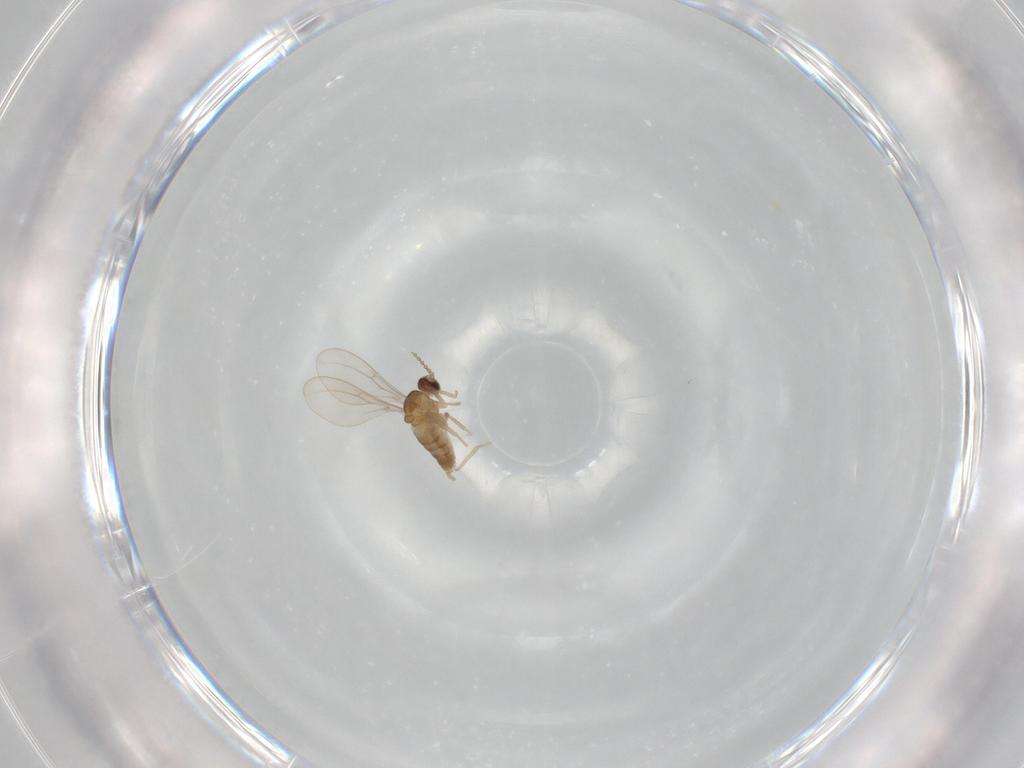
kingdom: Animalia
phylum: Arthropoda
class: Insecta
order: Diptera
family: Cecidomyiidae
